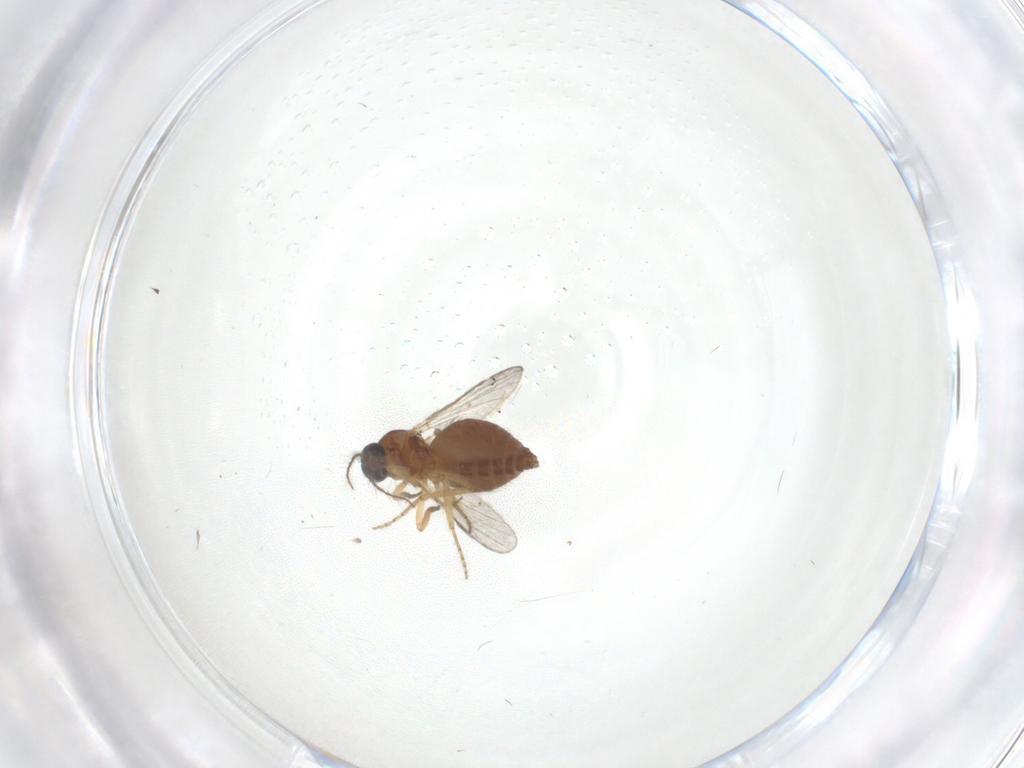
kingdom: Animalia
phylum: Arthropoda
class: Insecta
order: Diptera
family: Ceratopogonidae
